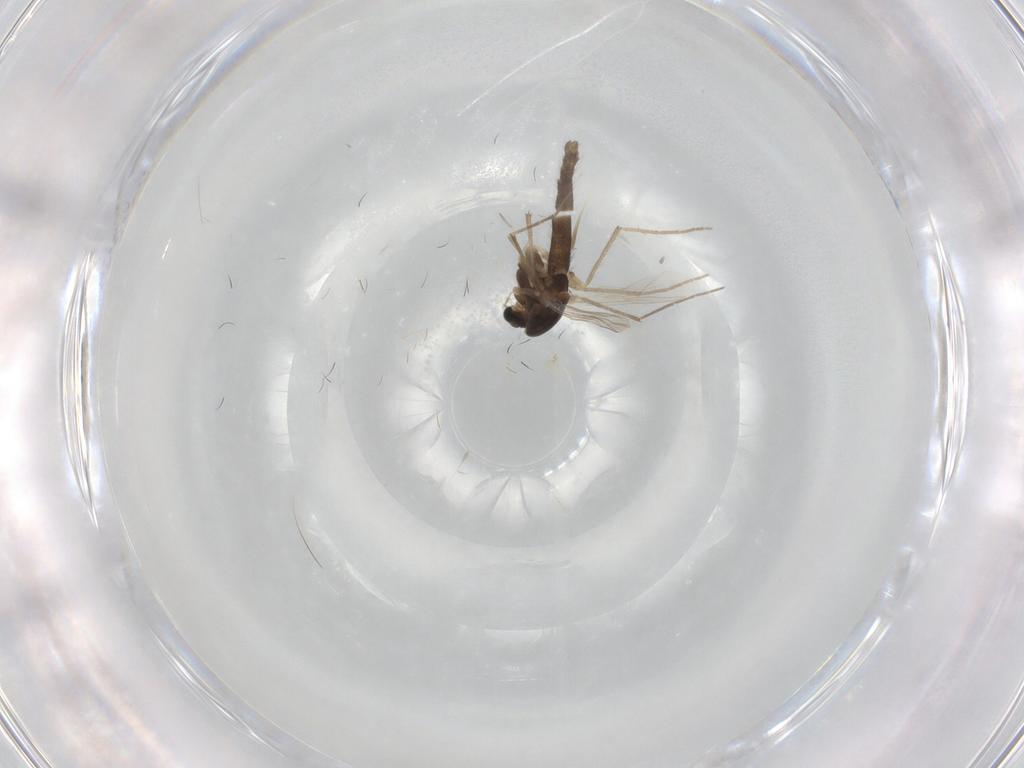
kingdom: Animalia
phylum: Arthropoda
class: Insecta
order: Diptera
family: Chironomidae
